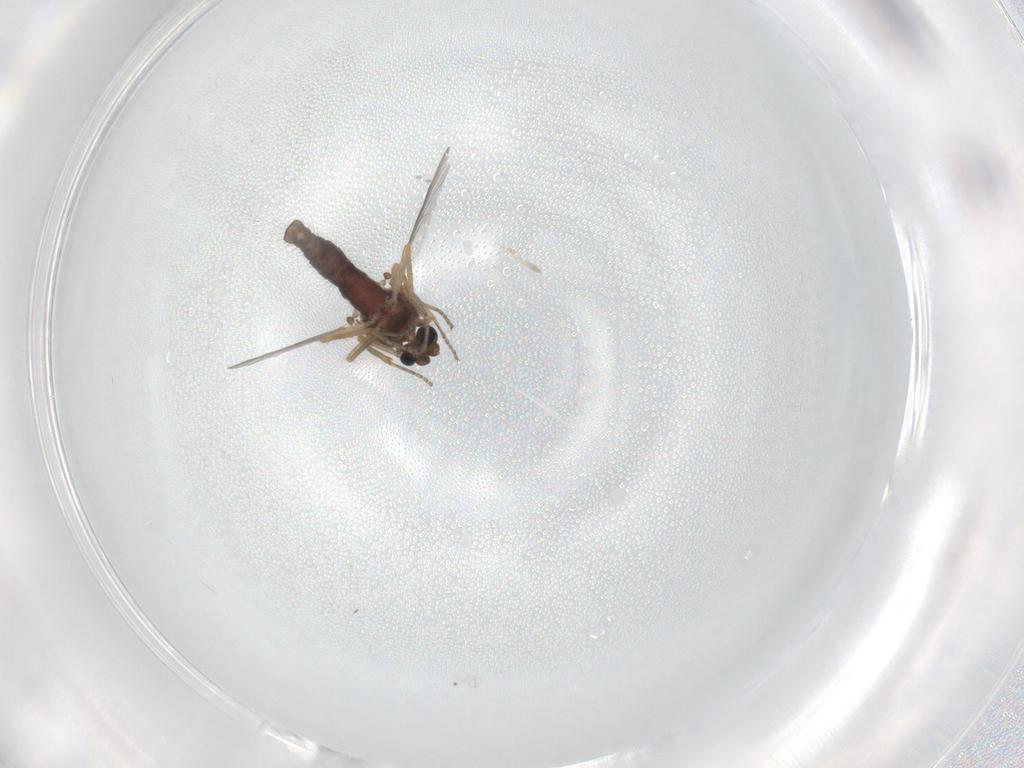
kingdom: Animalia
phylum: Arthropoda
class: Insecta
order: Diptera
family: Ceratopogonidae
